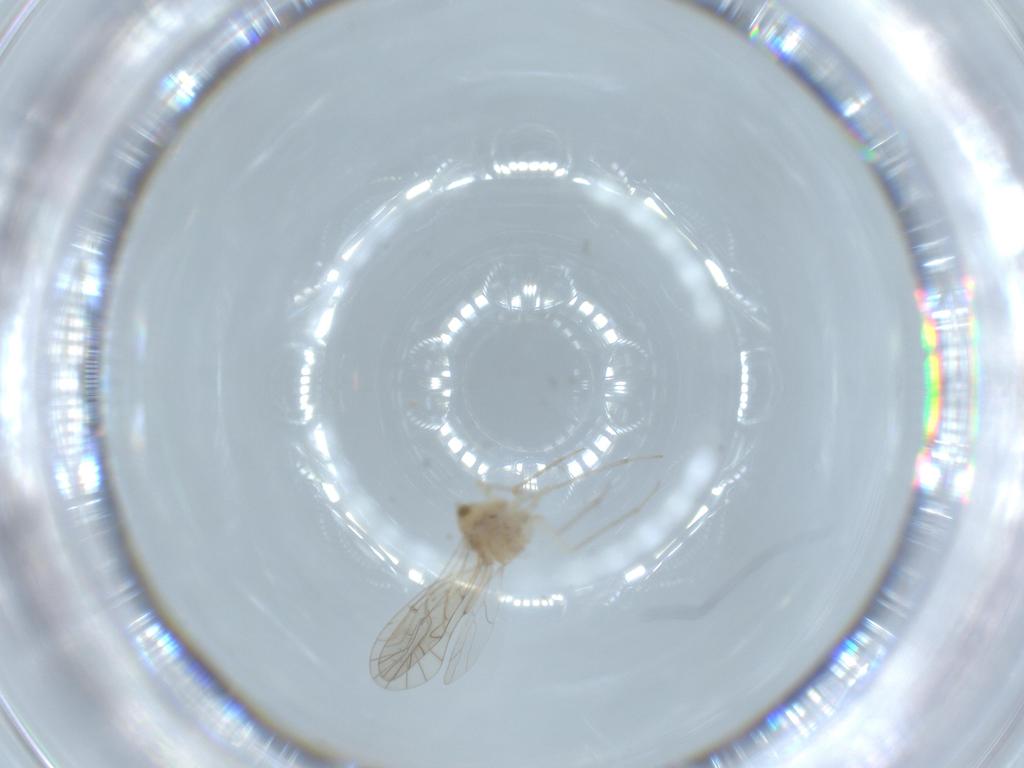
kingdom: Animalia
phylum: Arthropoda
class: Insecta
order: Psocodea
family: Lachesillidae
